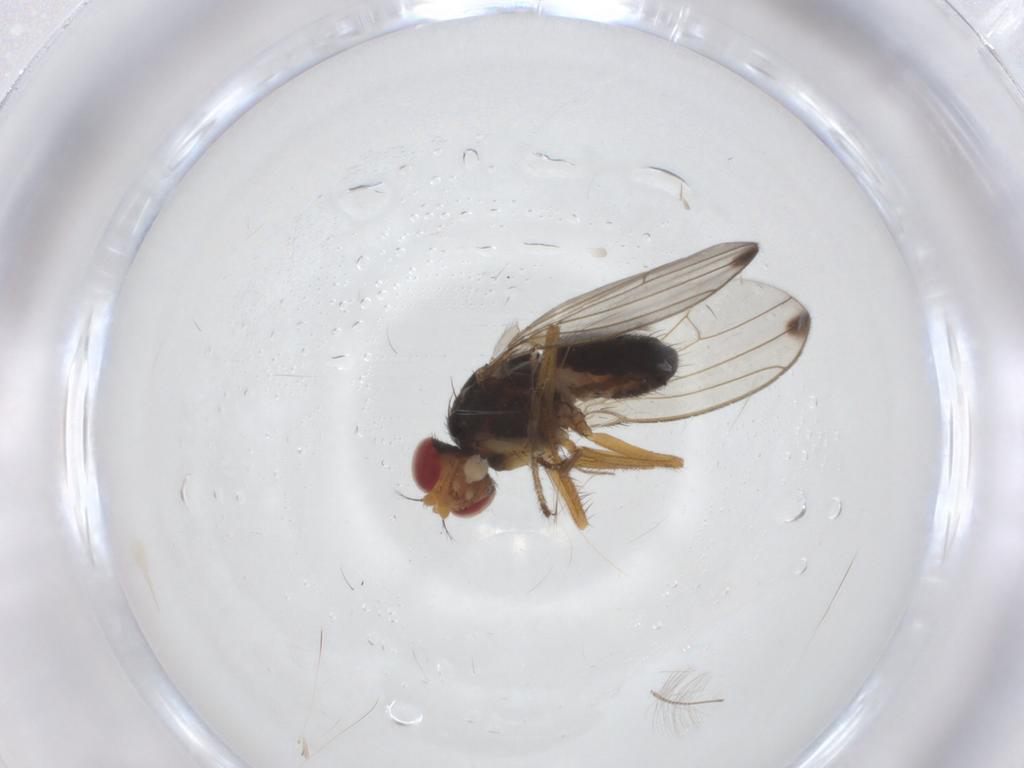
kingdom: Animalia
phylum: Arthropoda
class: Insecta
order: Diptera
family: Drosophilidae
